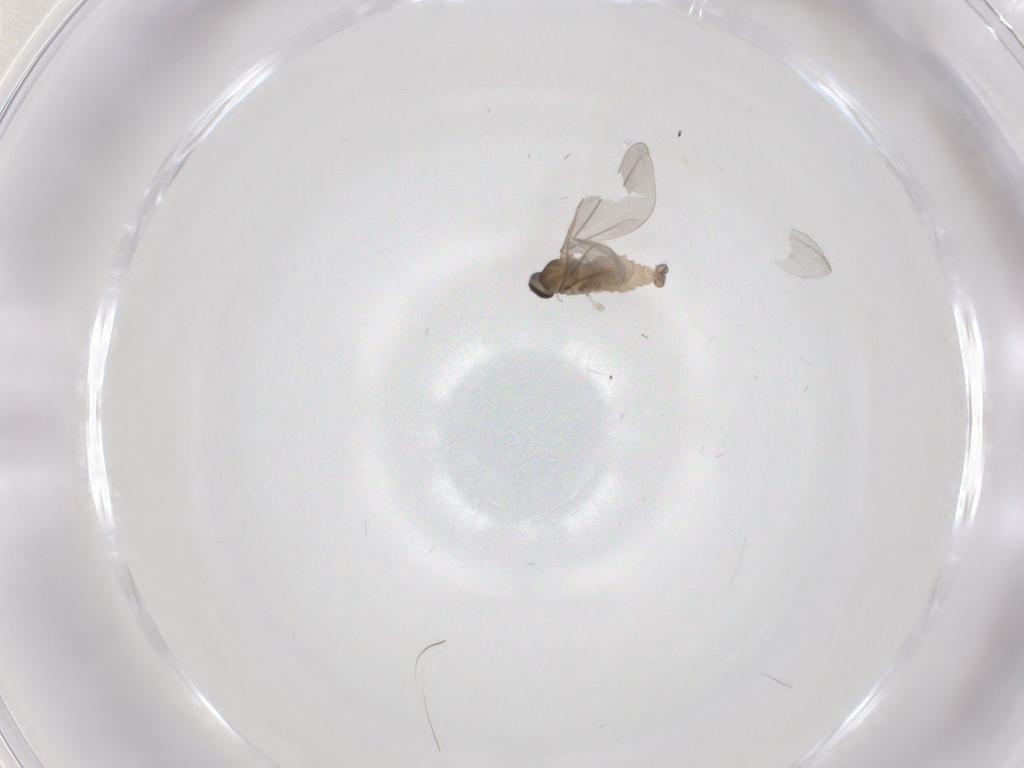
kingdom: Animalia
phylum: Arthropoda
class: Insecta
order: Diptera
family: Cecidomyiidae
